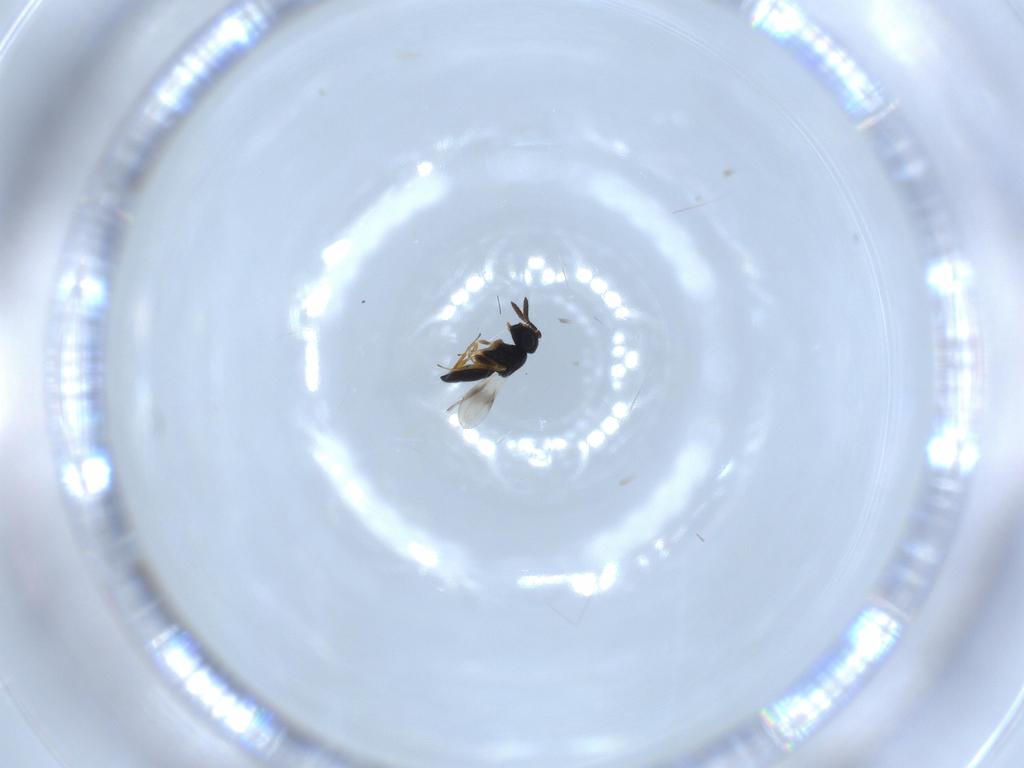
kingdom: Animalia
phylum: Arthropoda
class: Insecta
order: Hymenoptera
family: Scelionidae
